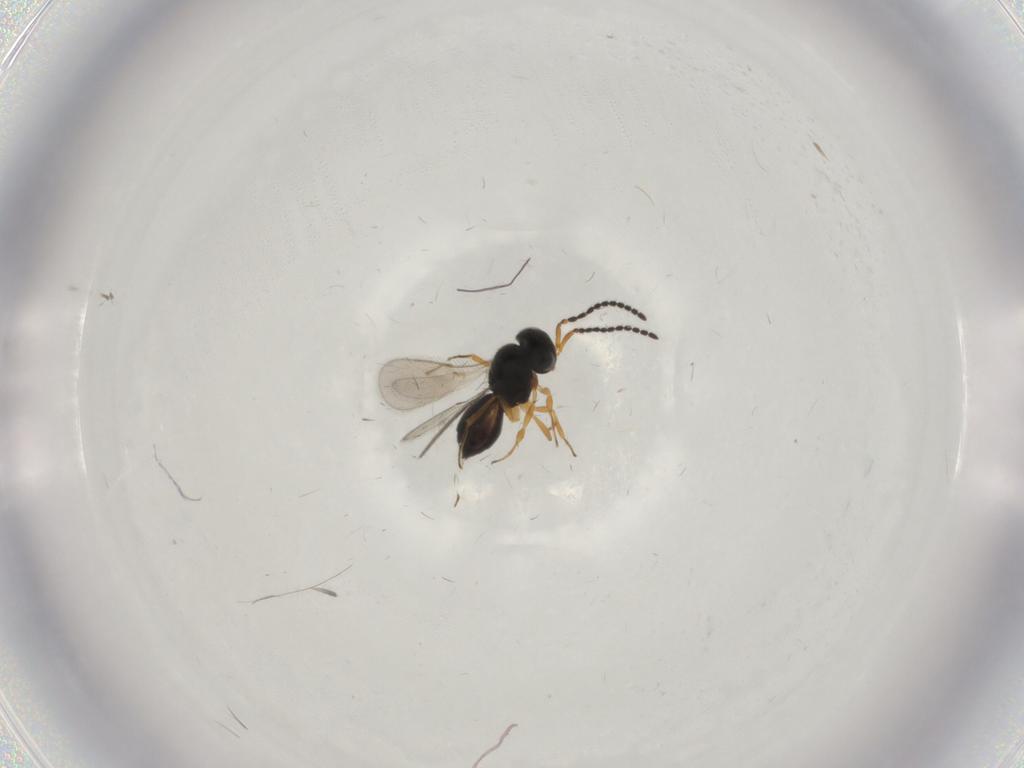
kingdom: Animalia
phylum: Arthropoda
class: Insecta
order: Hymenoptera
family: Scelionidae
